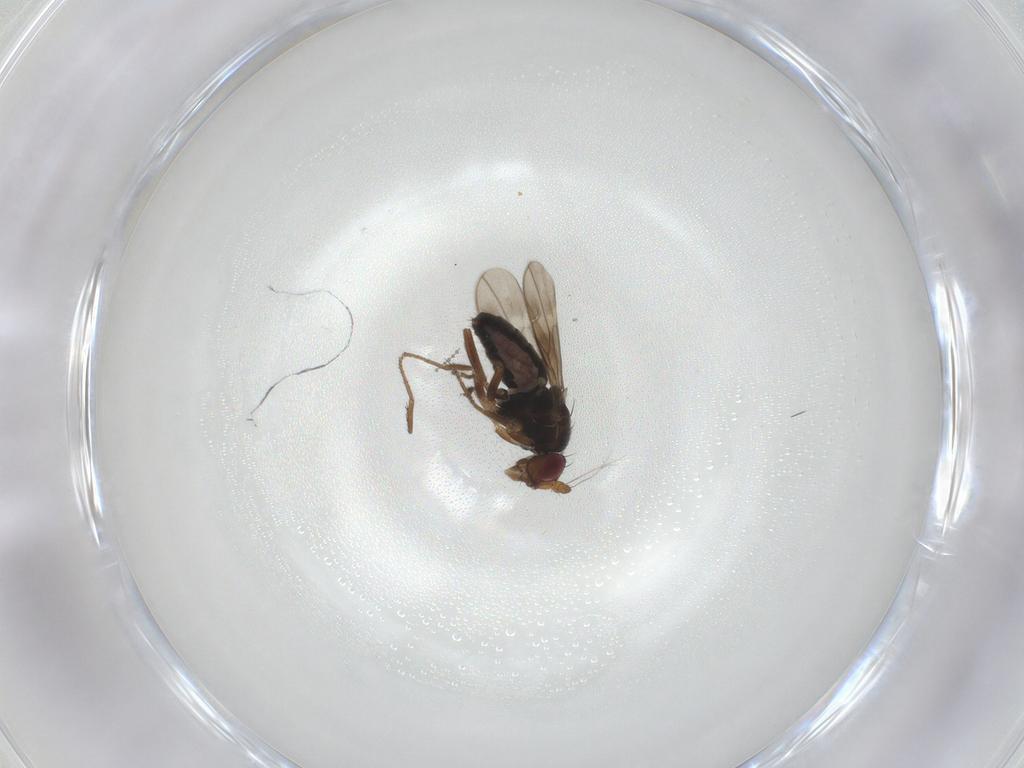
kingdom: Animalia
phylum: Arthropoda
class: Insecta
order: Diptera
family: Sphaeroceridae
